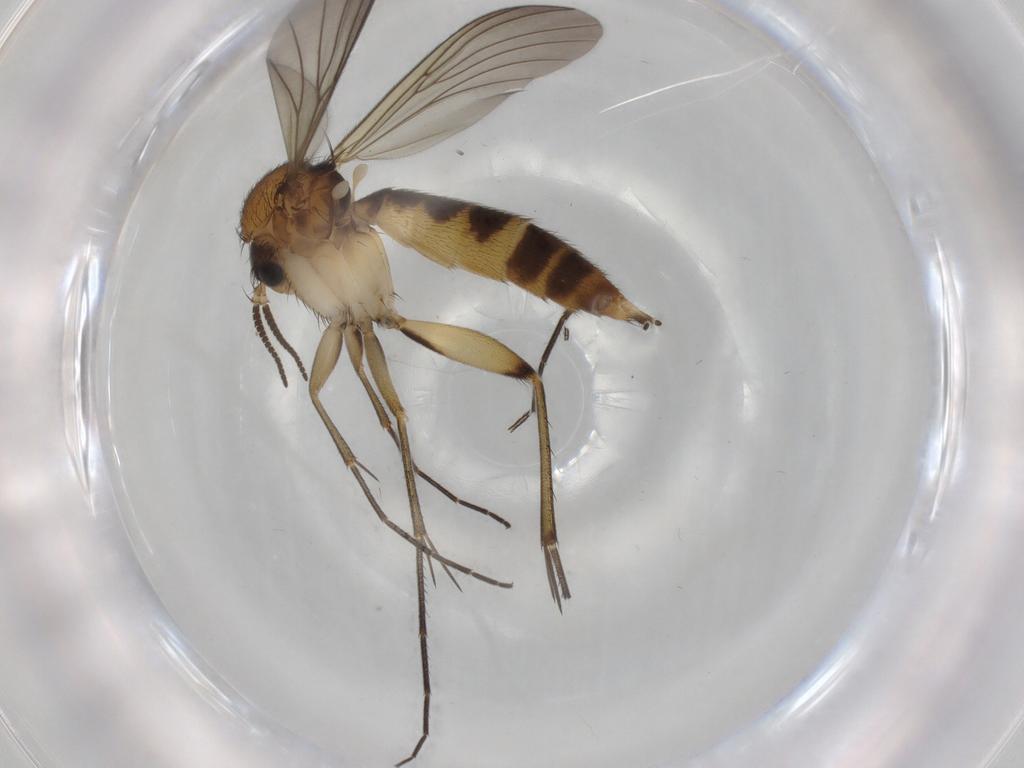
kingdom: Animalia
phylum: Arthropoda
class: Insecta
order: Diptera
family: Mycetophilidae
